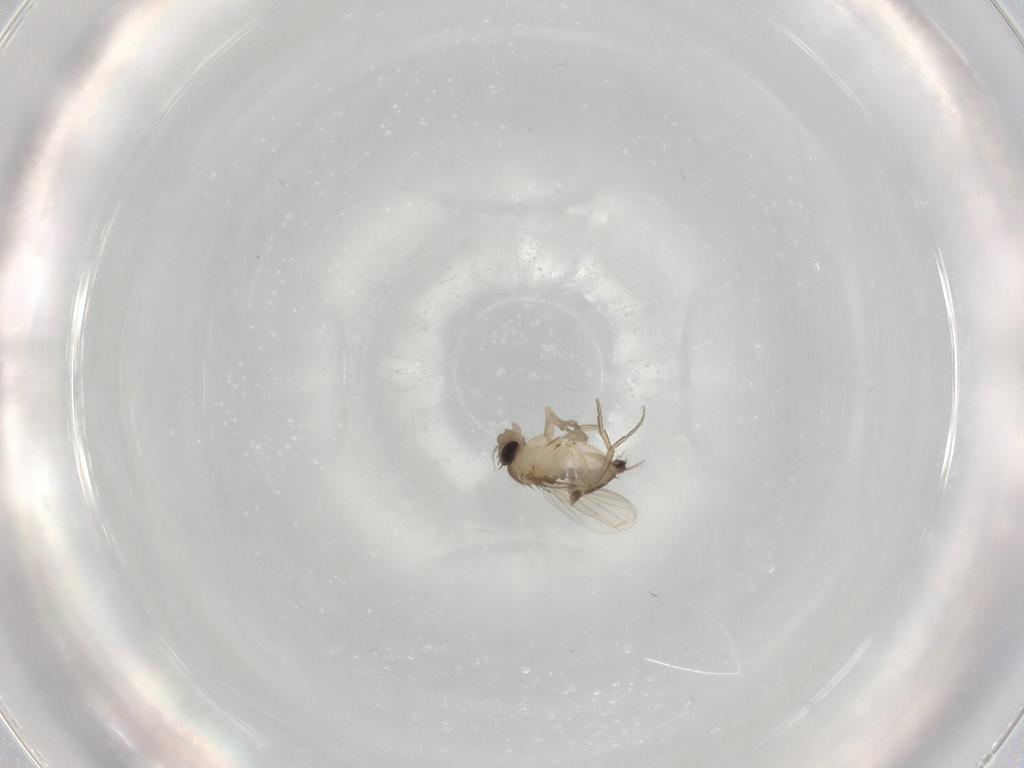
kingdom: Animalia
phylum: Arthropoda
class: Insecta
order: Diptera
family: Phoridae
